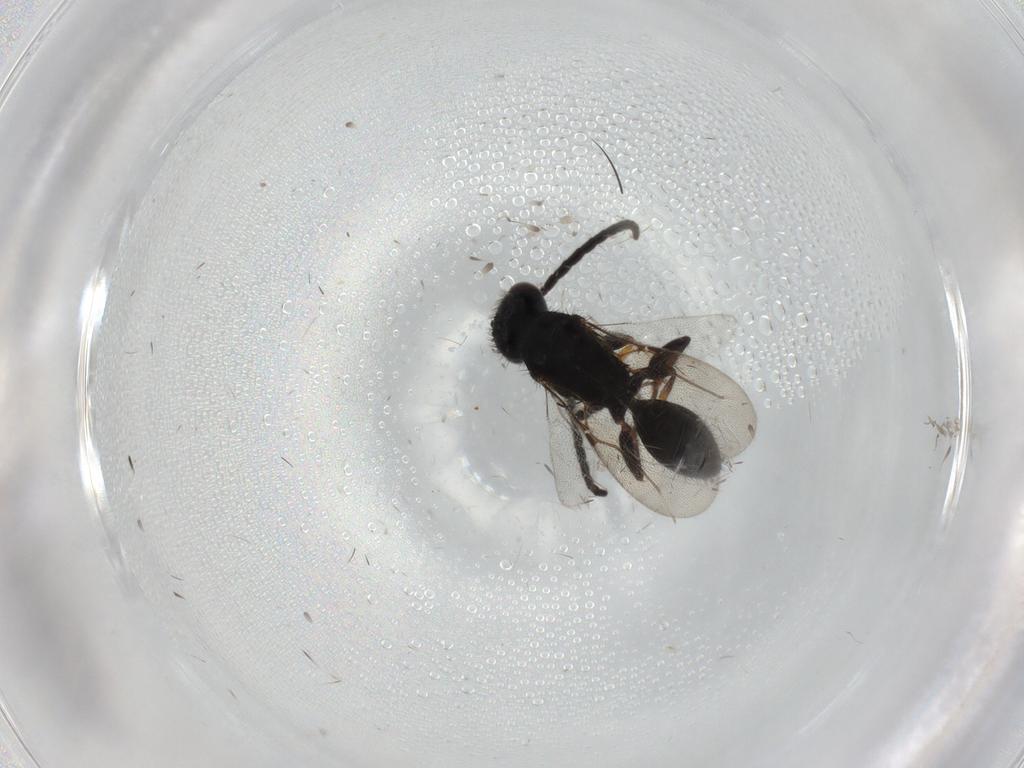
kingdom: Animalia
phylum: Arthropoda
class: Insecta
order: Hymenoptera
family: Bethylidae
